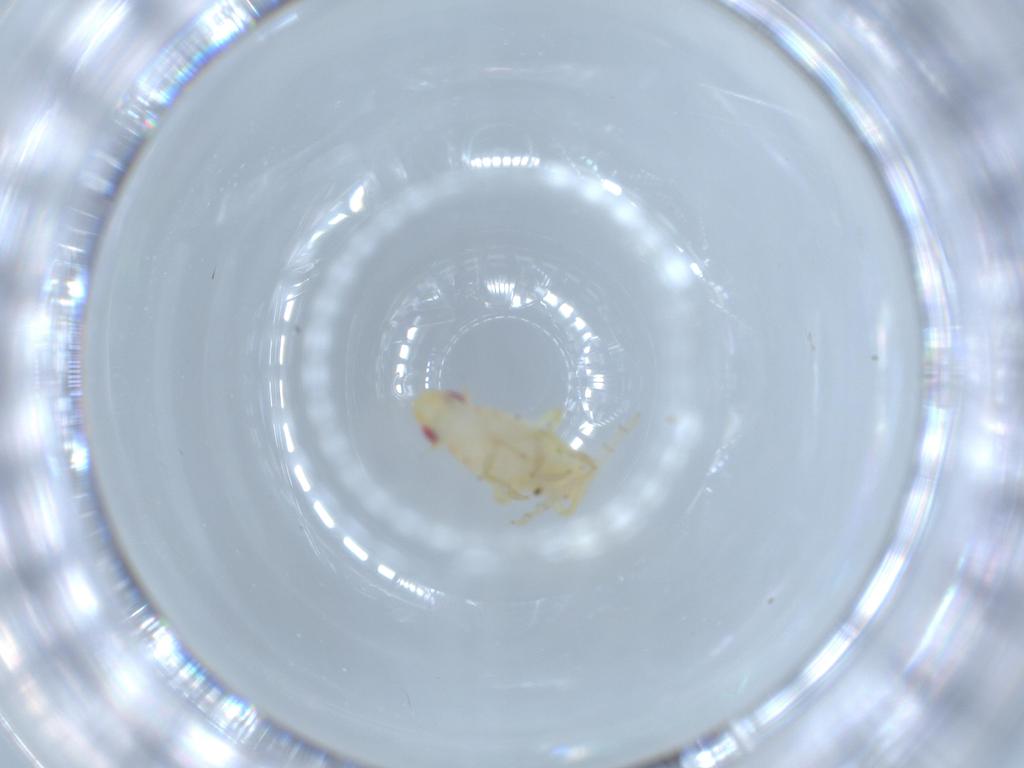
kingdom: Animalia
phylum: Arthropoda
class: Insecta
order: Hemiptera
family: Tropiduchidae
